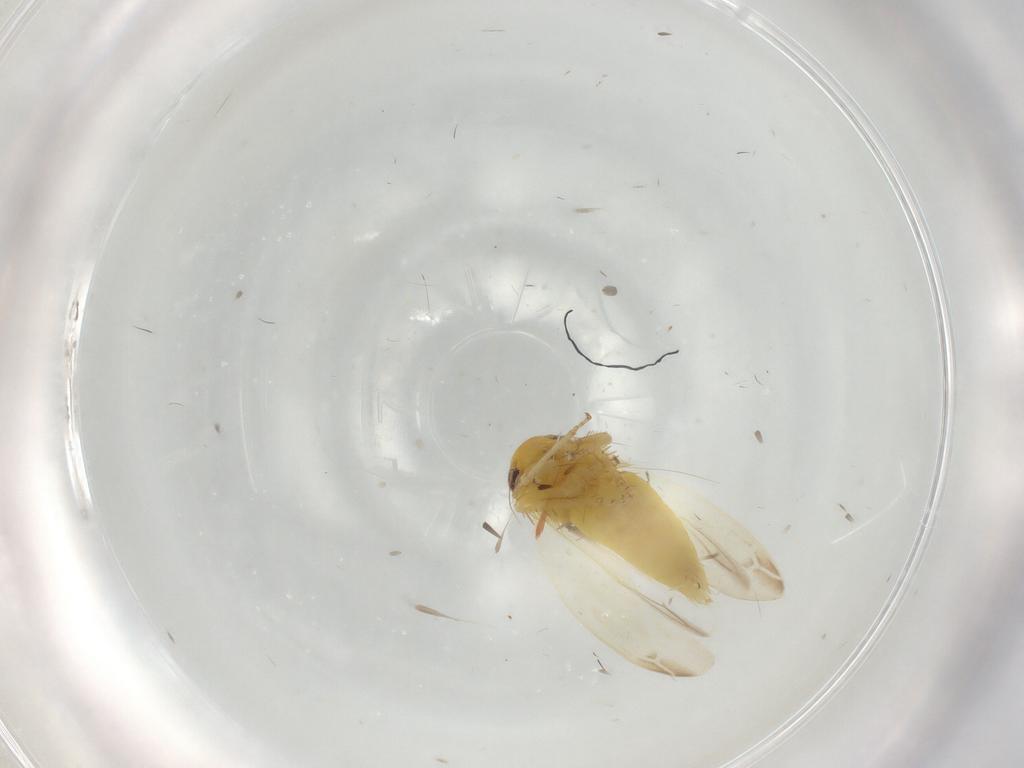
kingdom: Animalia
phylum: Arthropoda
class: Insecta
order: Hemiptera
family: Cicadellidae
